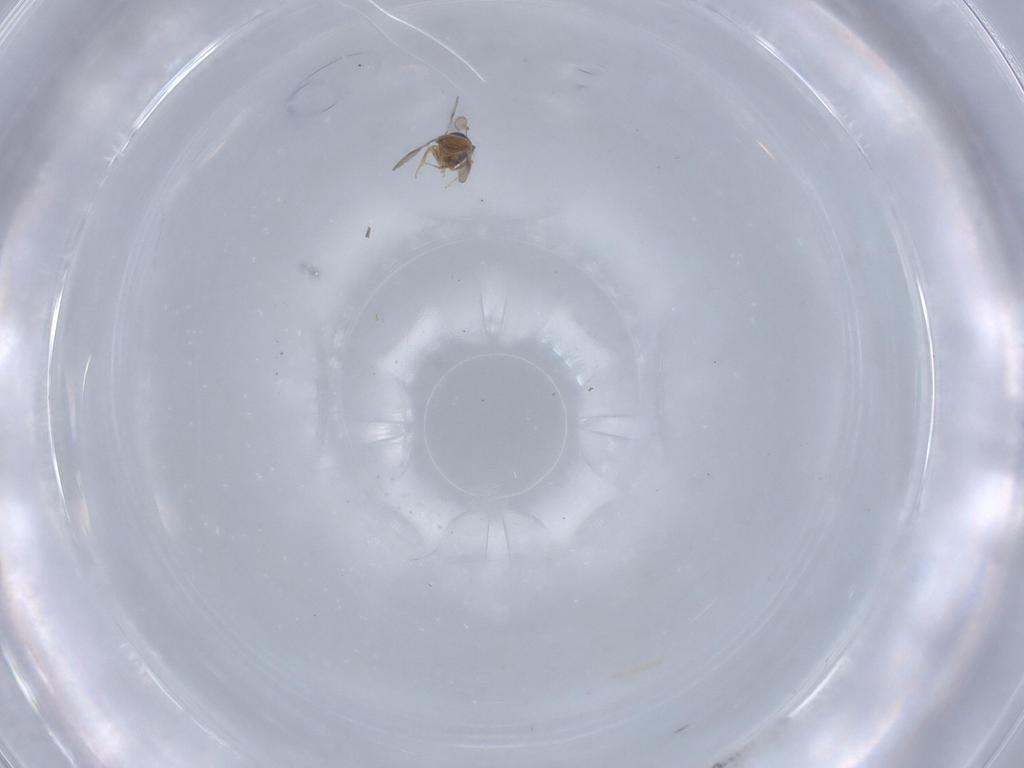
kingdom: Animalia
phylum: Arthropoda
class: Insecta
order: Hymenoptera
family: Scelionidae
